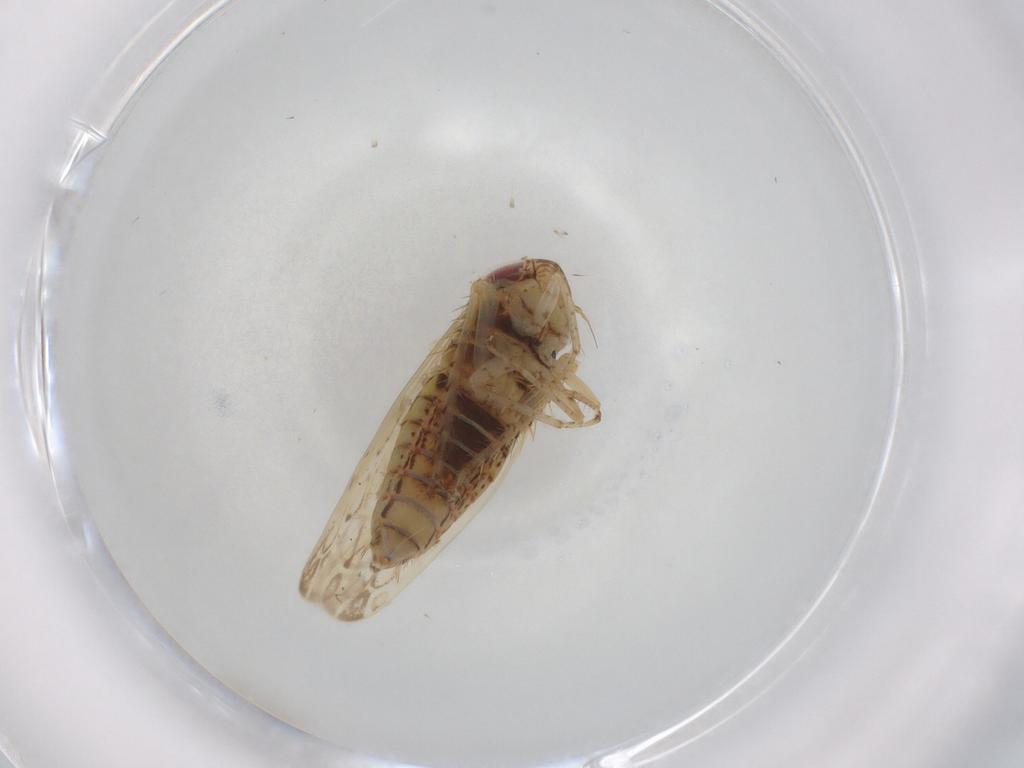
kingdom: Animalia
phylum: Arthropoda
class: Insecta
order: Hemiptera
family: Cicadellidae
